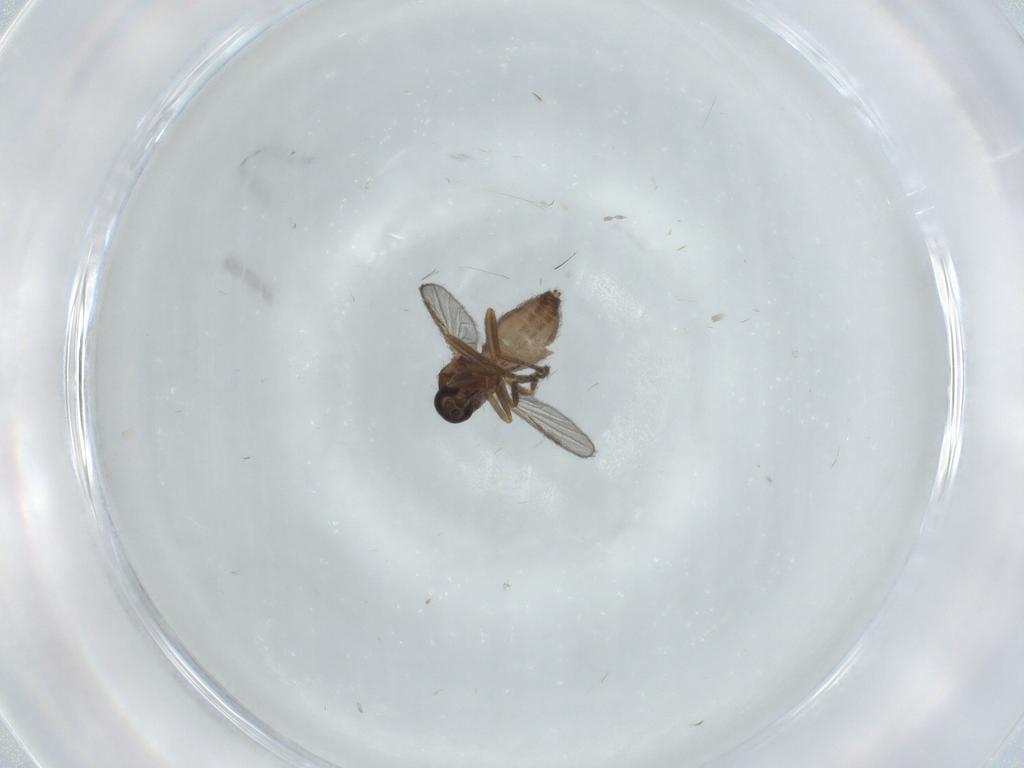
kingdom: Animalia
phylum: Arthropoda
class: Insecta
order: Diptera
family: Ceratopogonidae
